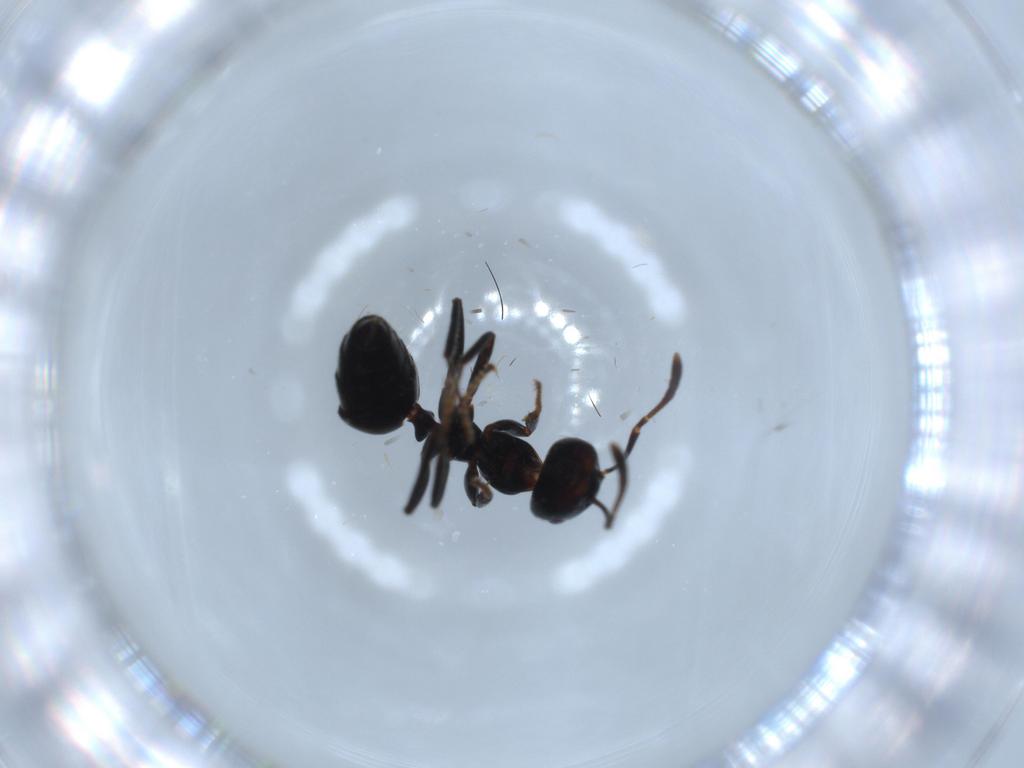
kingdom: Animalia
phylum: Arthropoda
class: Insecta
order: Hymenoptera
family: Formicidae
